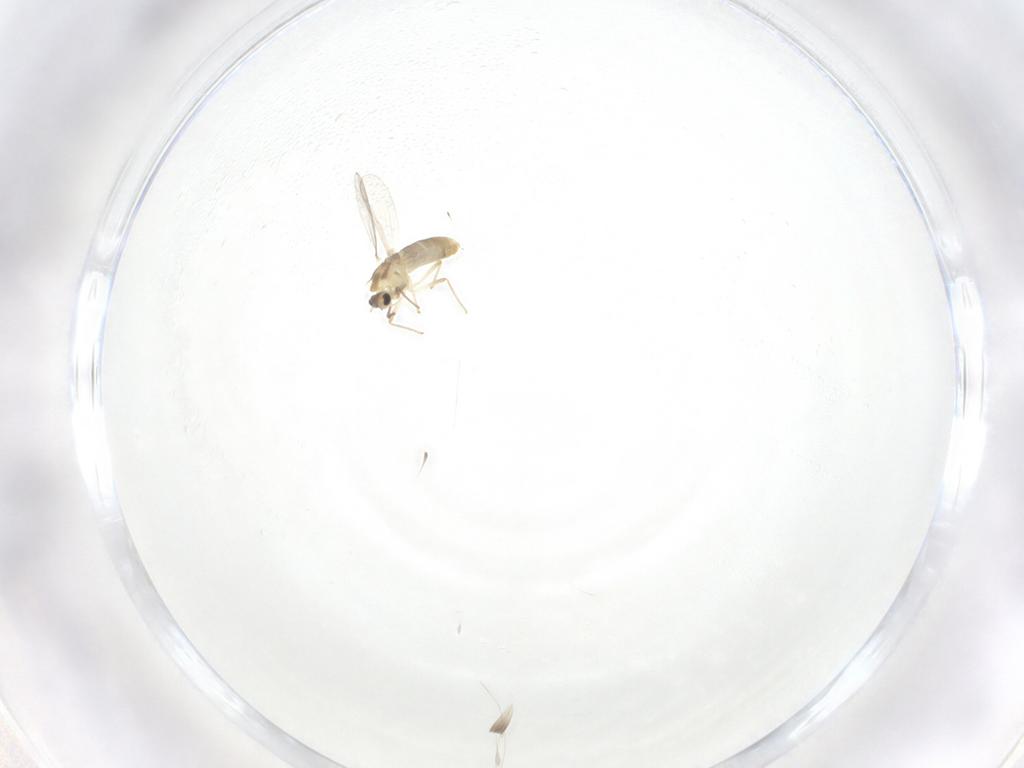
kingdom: Animalia
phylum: Arthropoda
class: Insecta
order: Diptera
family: Chironomidae
